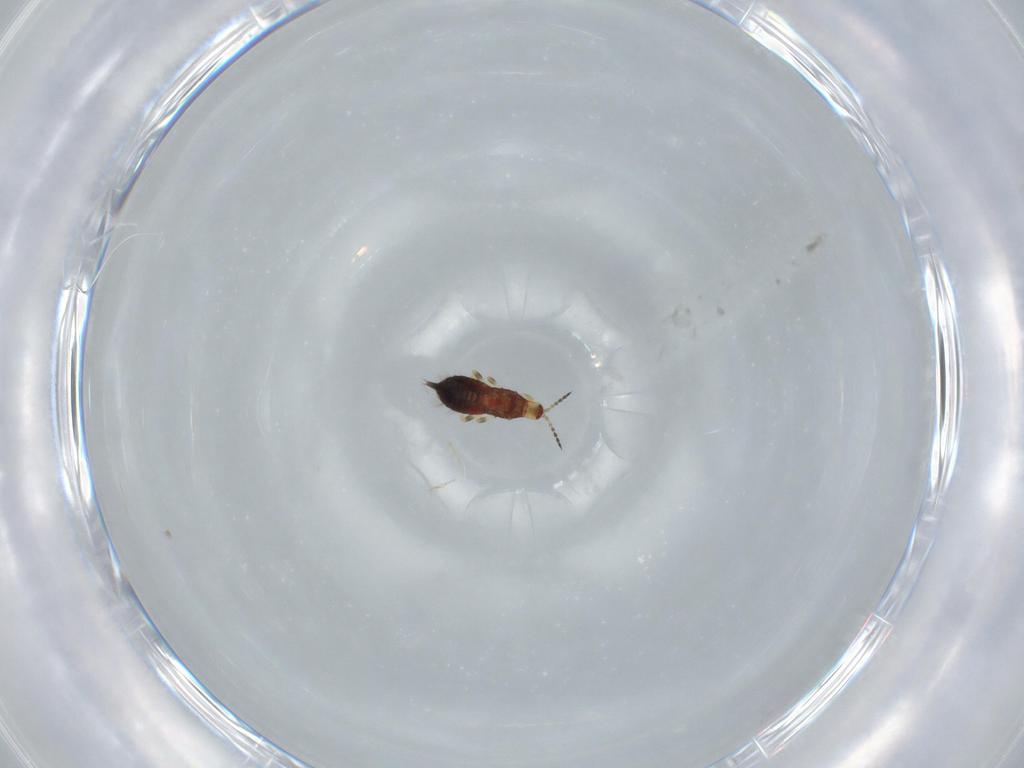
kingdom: Animalia
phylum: Arthropoda
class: Insecta
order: Thysanoptera
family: Phlaeothripidae
